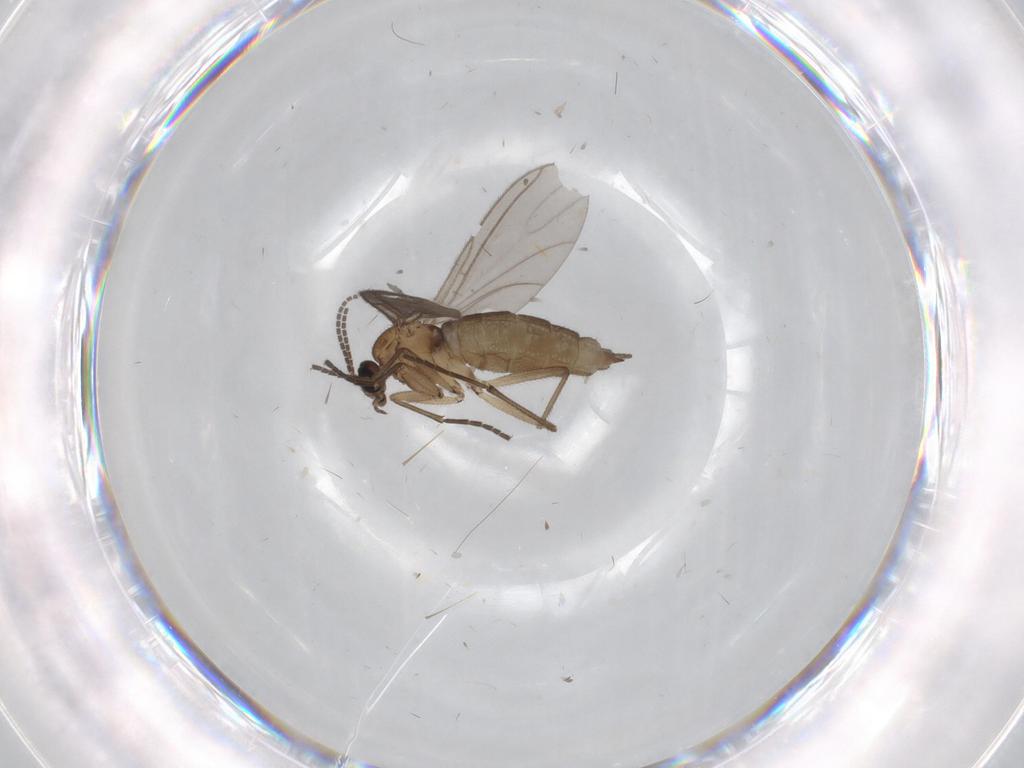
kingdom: Animalia
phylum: Arthropoda
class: Insecta
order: Diptera
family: Sciaridae
